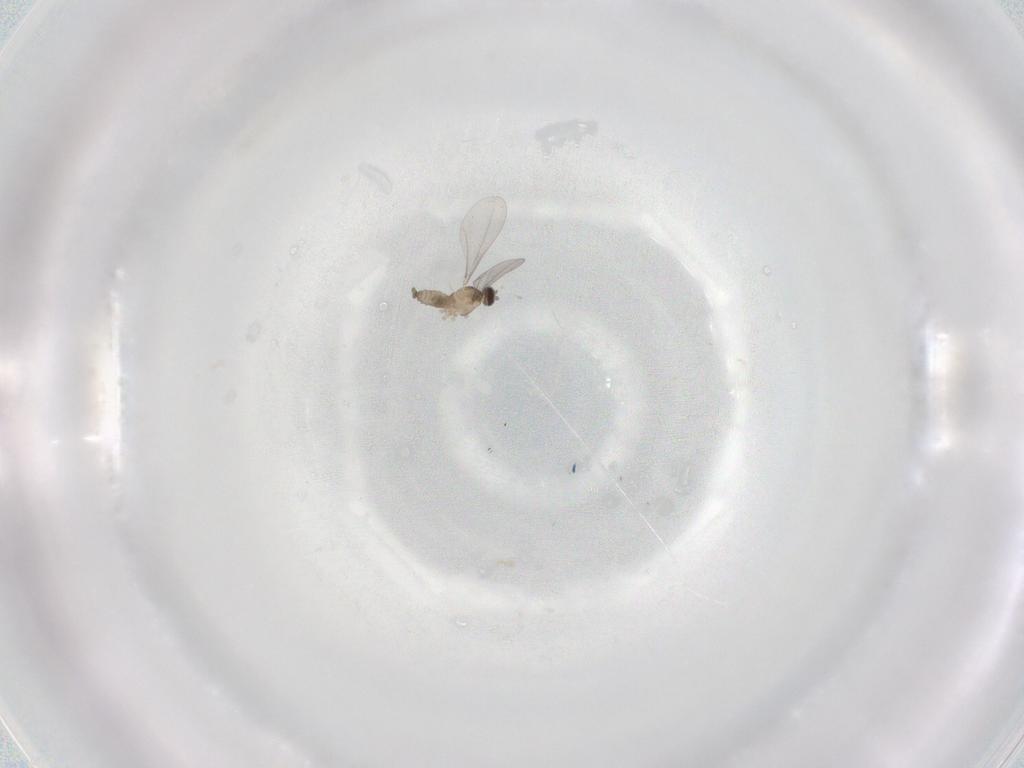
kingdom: Animalia
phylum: Arthropoda
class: Insecta
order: Diptera
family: Cecidomyiidae
